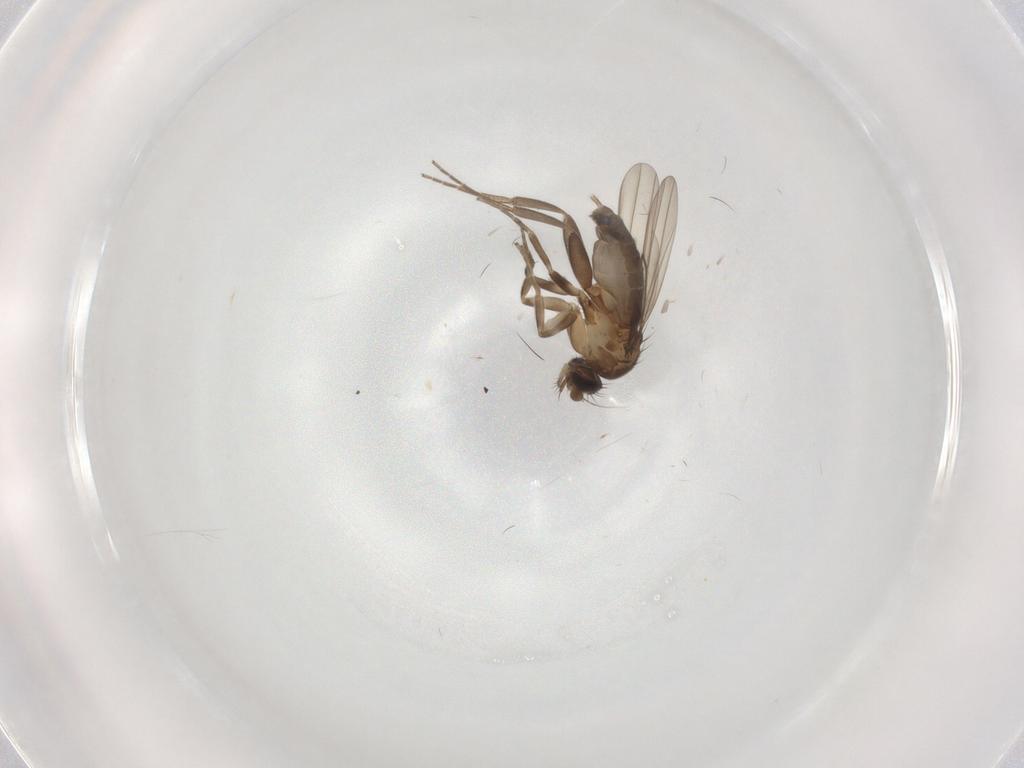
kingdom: Animalia
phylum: Arthropoda
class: Insecta
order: Diptera
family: Phoridae
